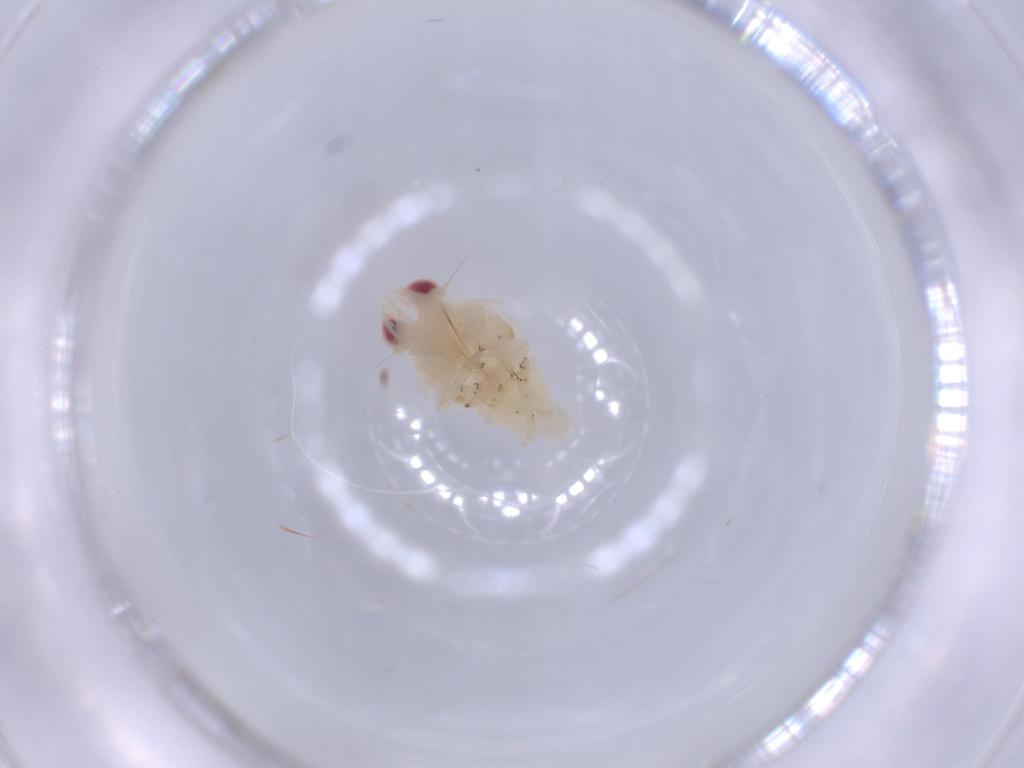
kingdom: Animalia
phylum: Arthropoda
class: Insecta
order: Hemiptera
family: Nogodinidae
